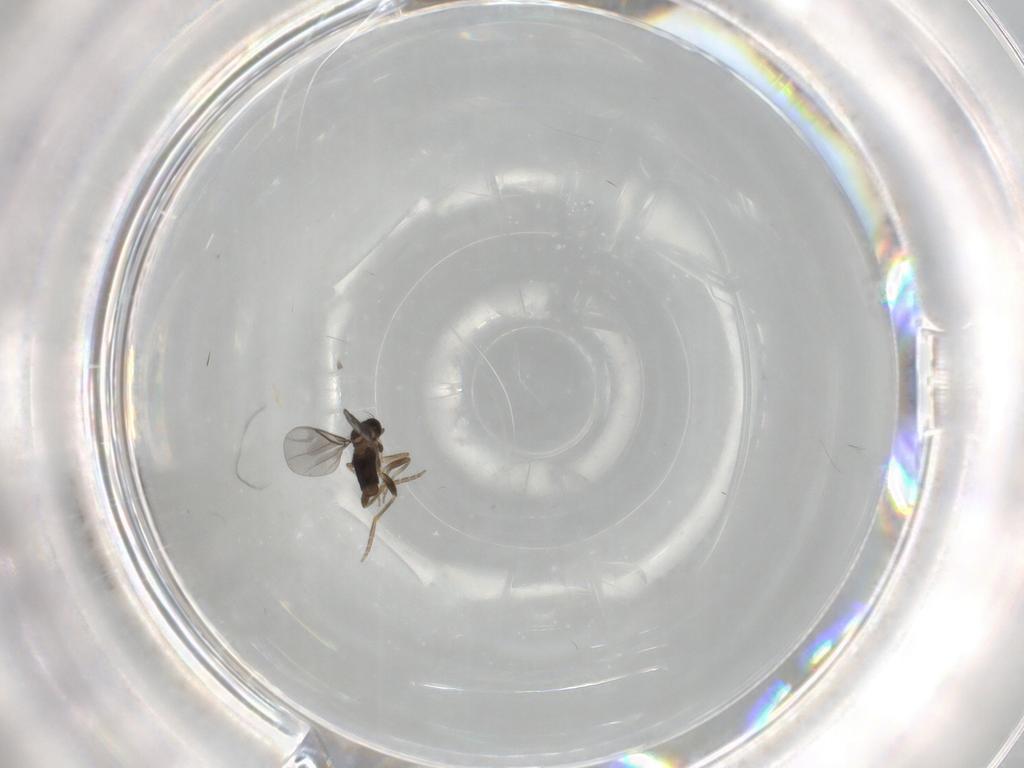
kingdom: Animalia
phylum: Arthropoda
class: Insecta
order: Diptera
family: Phoridae
